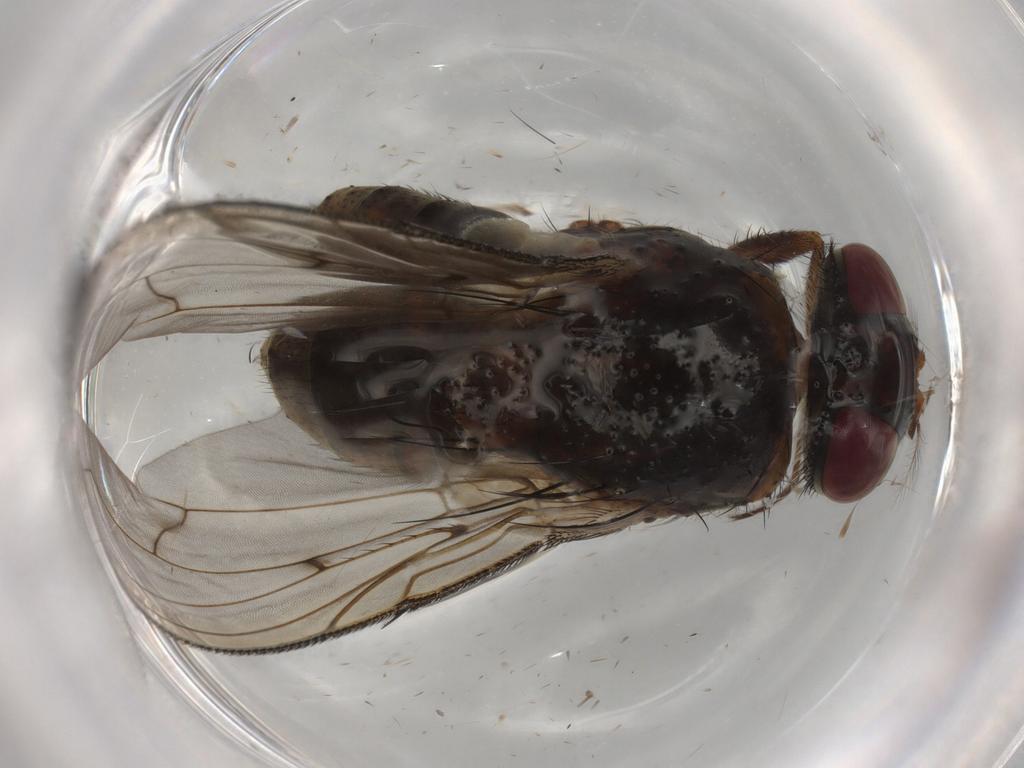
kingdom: Animalia
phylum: Arthropoda
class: Insecta
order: Diptera
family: Tachinidae
